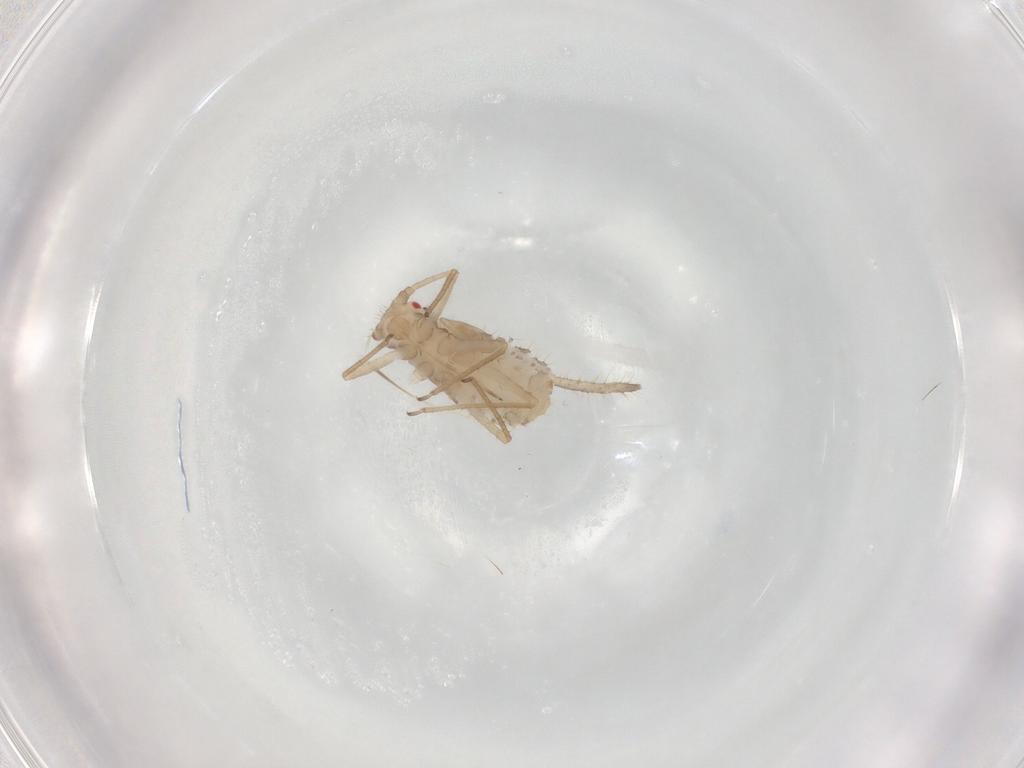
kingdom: Animalia
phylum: Arthropoda
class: Insecta
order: Hemiptera
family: Aphididae
